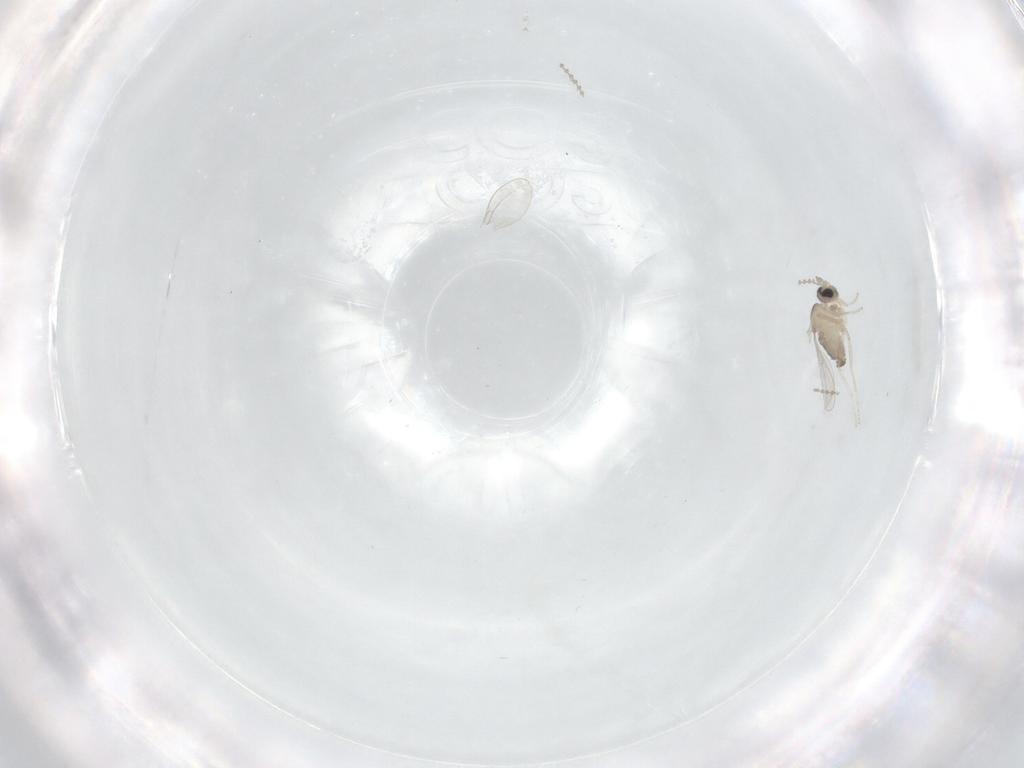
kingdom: Animalia
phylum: Arthropoda
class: Insecta
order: Diptera
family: Cecidomyiidae
